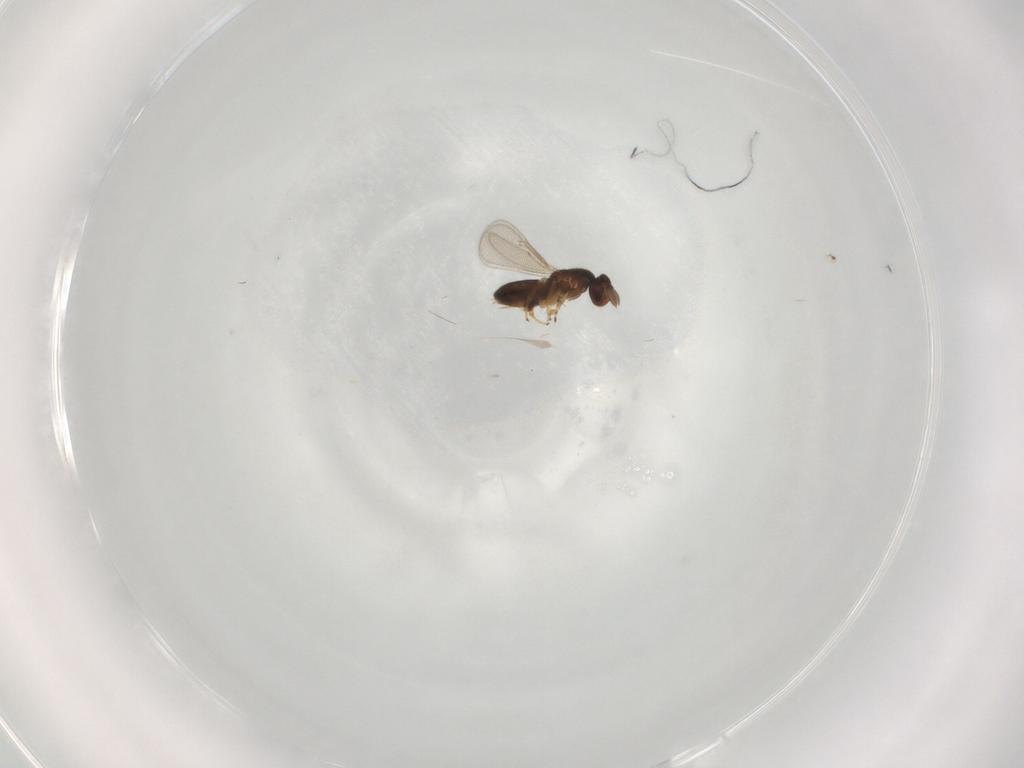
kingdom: Animalia
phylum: Arthropoda
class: Insecta
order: Hymenoptera
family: Eulophidae
